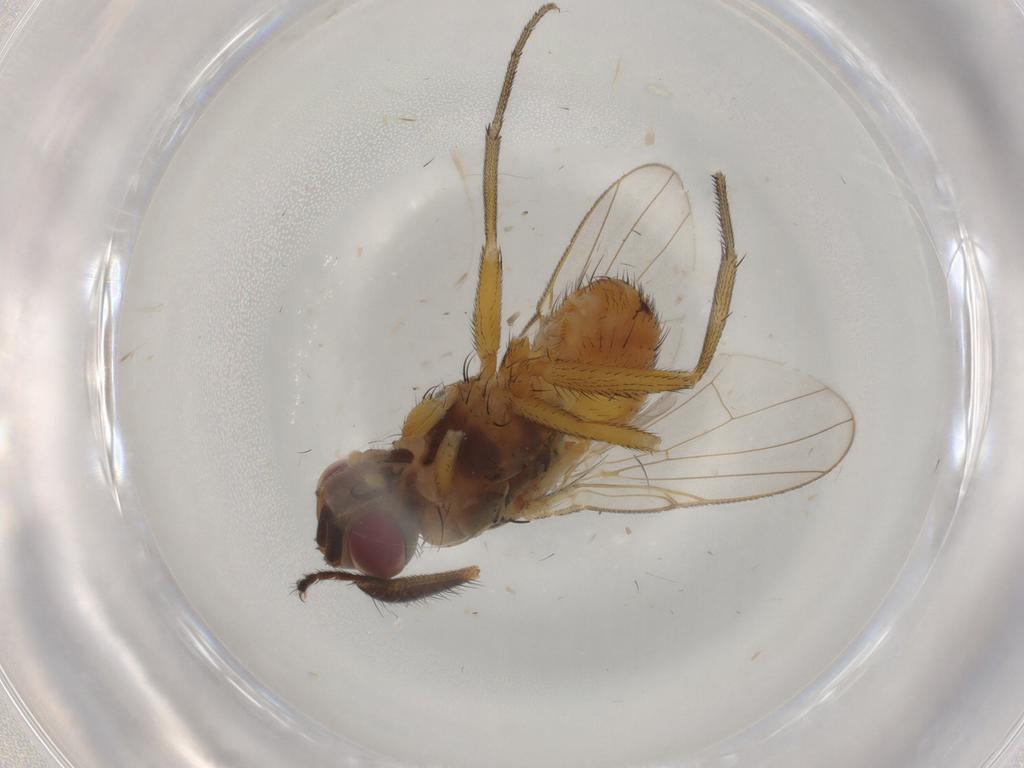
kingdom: Animalia
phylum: Arthropoda
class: Insecta
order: Diptera
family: Muscidae
